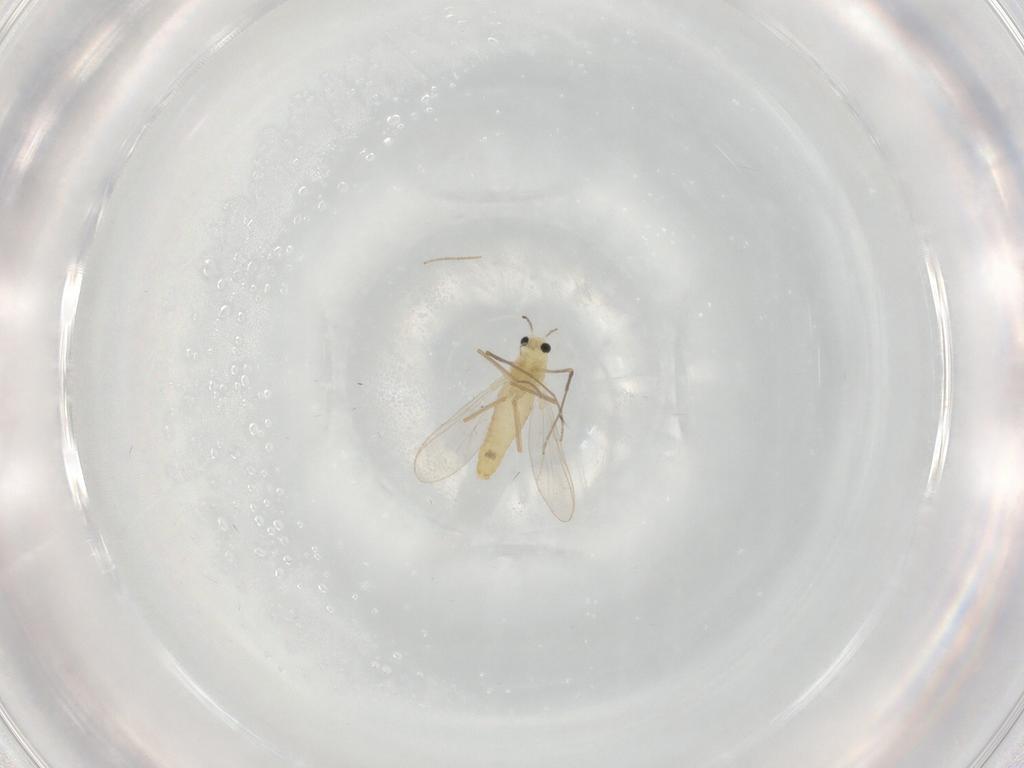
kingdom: Animalia
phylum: Arthropoda
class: Insecta
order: Diptera
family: Chironomidae
